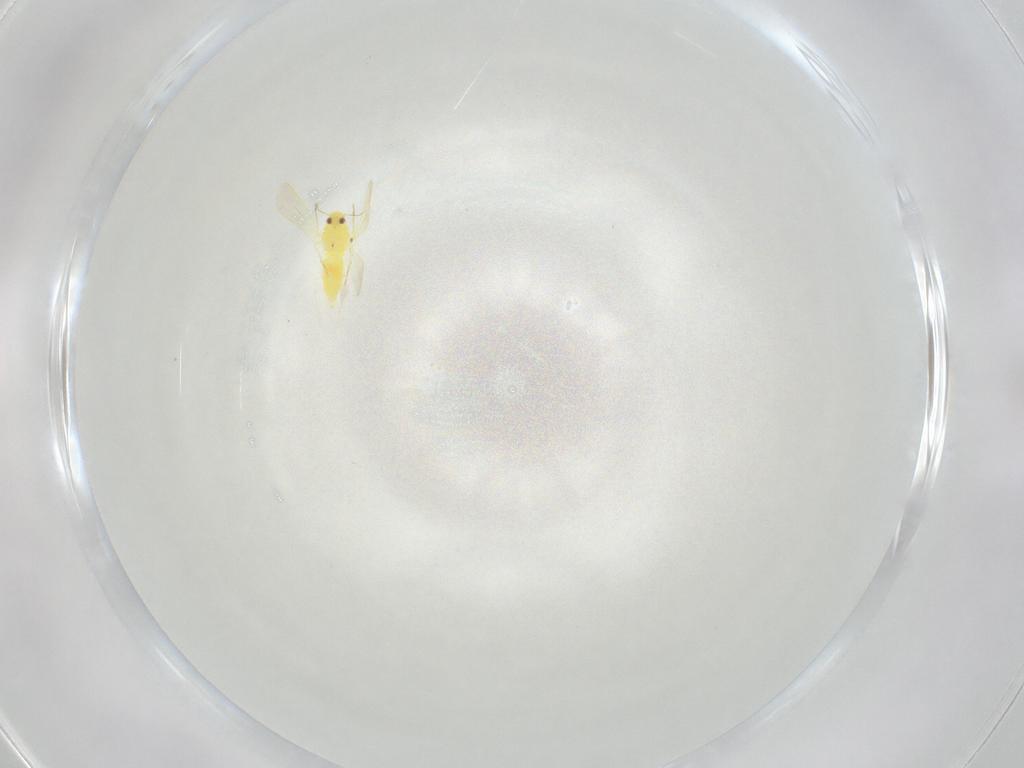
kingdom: Animalia
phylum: Arthropoda
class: Insecta
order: Hemiptera
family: Aleyrodidae
